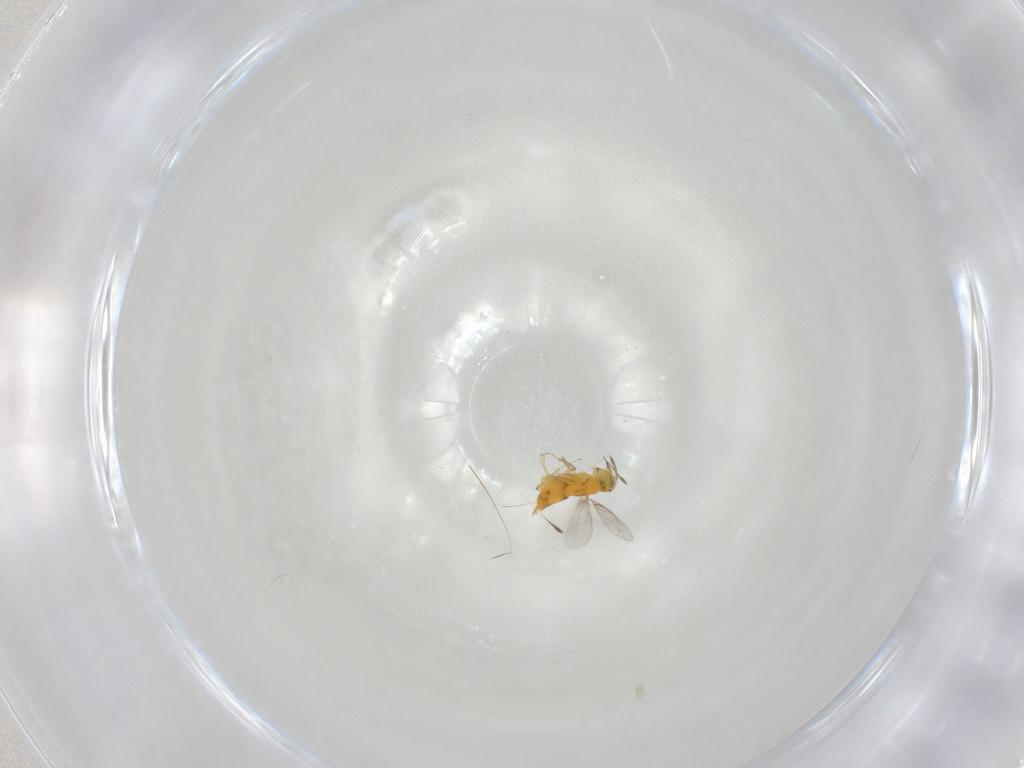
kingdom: Animalia
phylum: Arthropoda
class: Insecta
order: Hymenoptera
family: Aphelinidae
